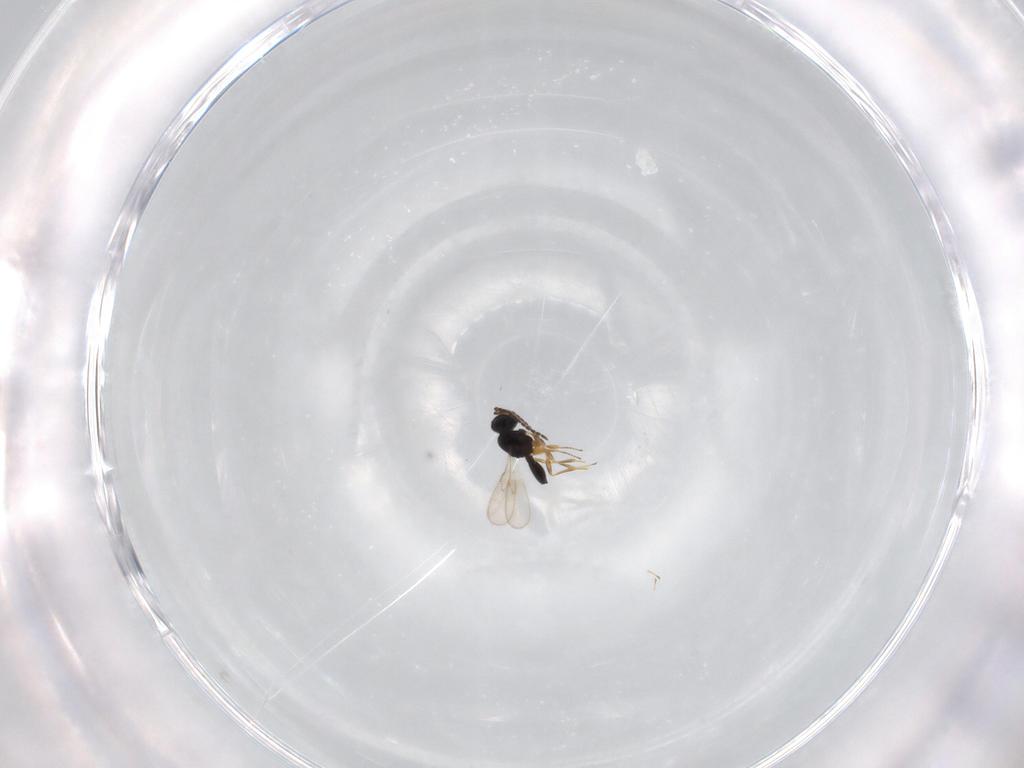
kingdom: Animalia
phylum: Arthropoda
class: Insecta
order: Hymenoptera
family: Scelionidae
